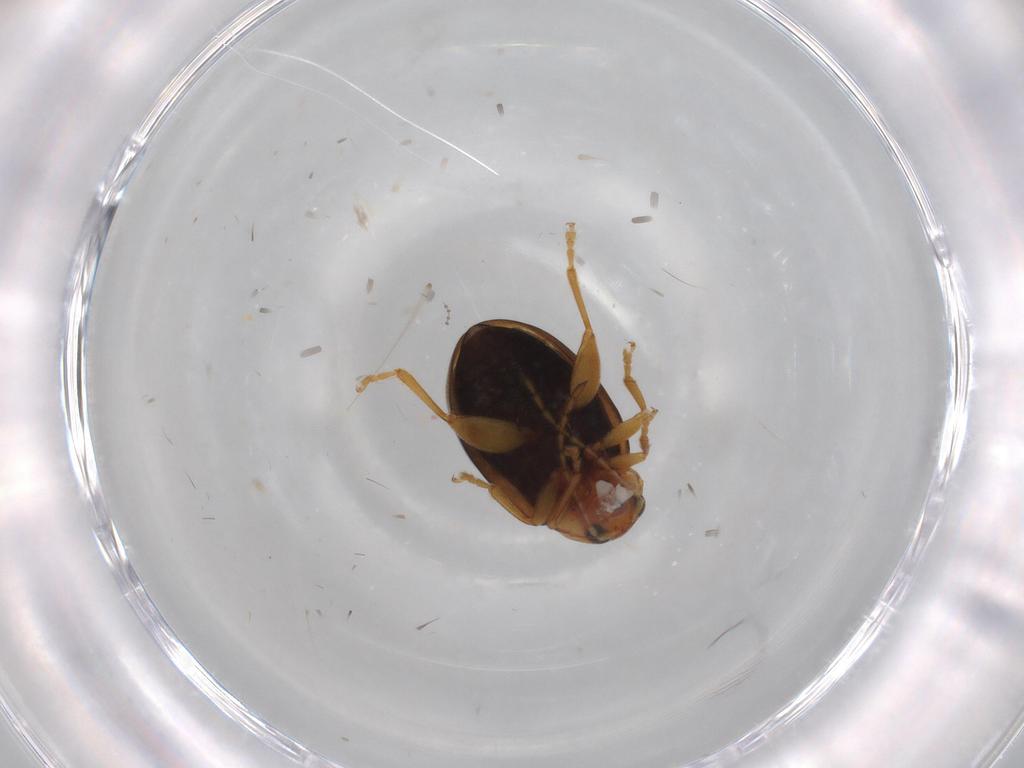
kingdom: Animalia
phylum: Arthropoda
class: Insecta
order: Coleoptera
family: Chrysomelidae
